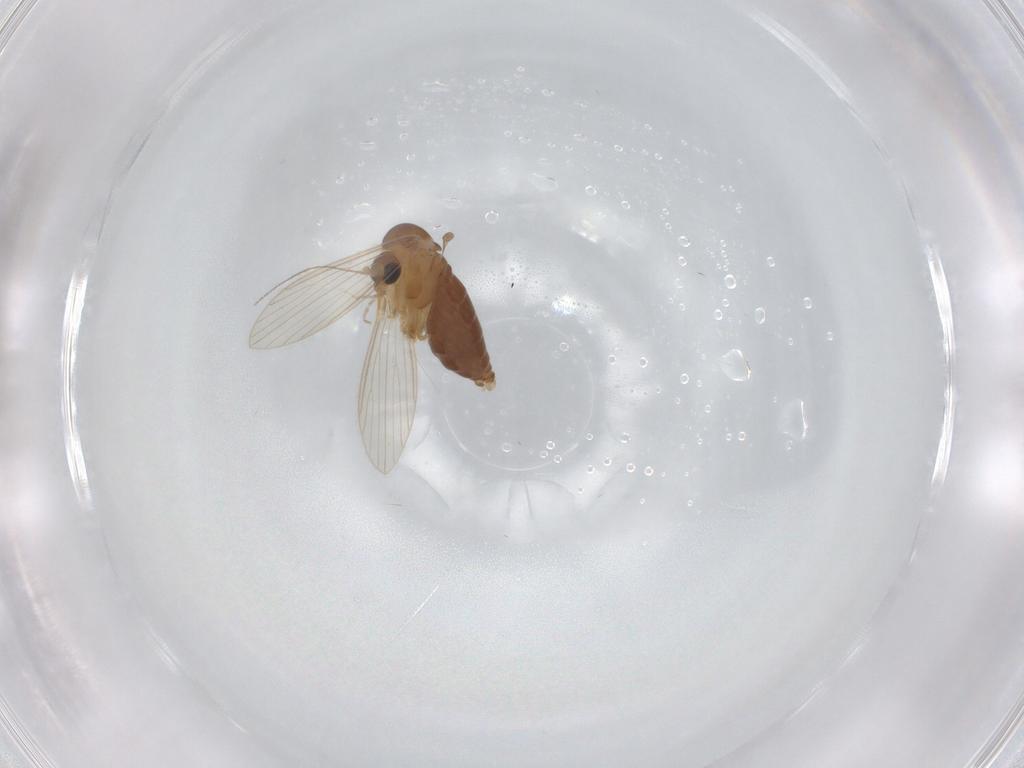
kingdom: Animalia
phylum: Arthropoda
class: Insecta
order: Diptera
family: Psychodidae
